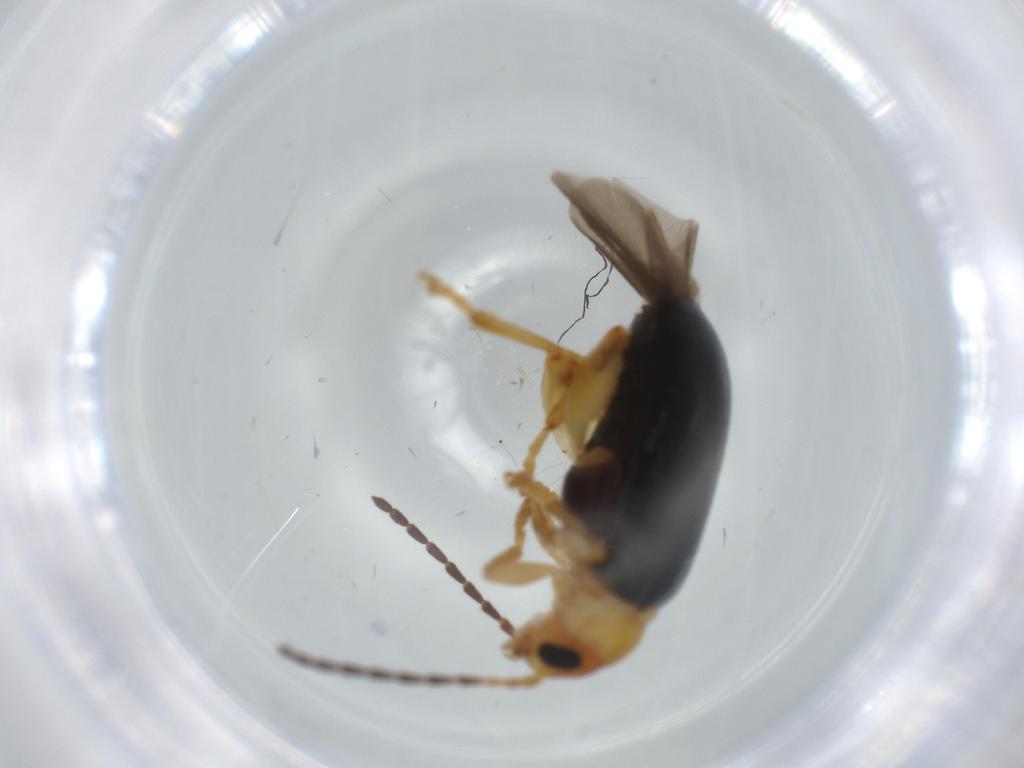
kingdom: Animalia
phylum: Arthropoda
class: Insecta
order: Coleoptera
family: Chrysomelidae
